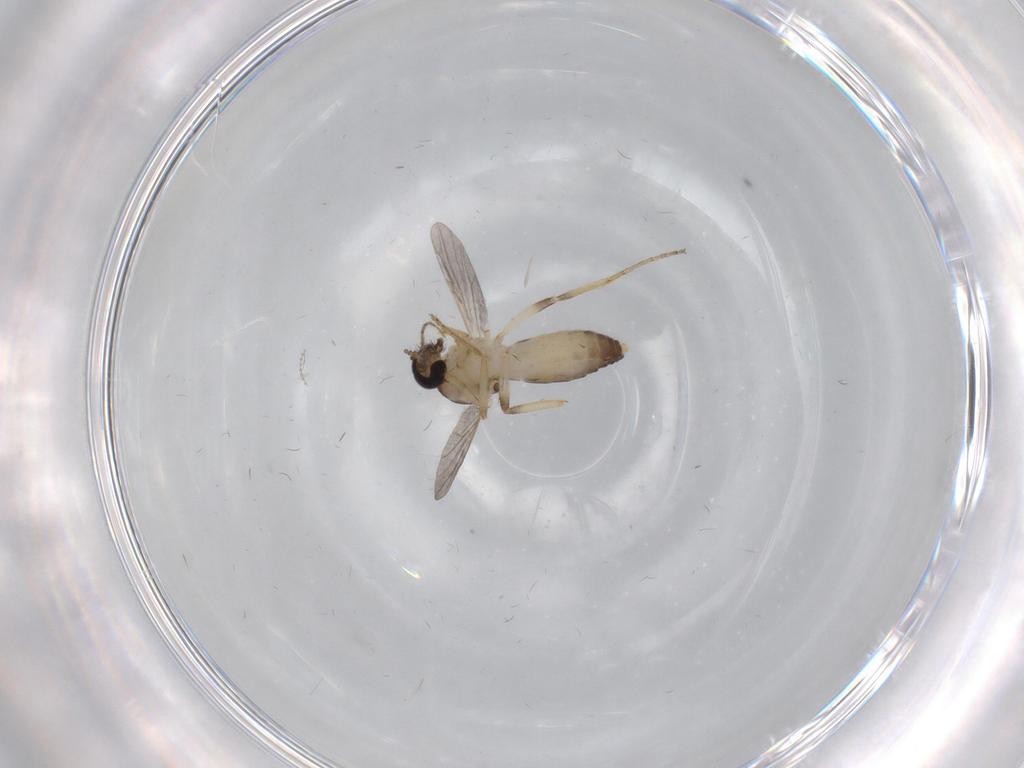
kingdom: Animalia
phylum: Arthropoda
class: Insecta
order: Diptera
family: Ceratopogonidae
